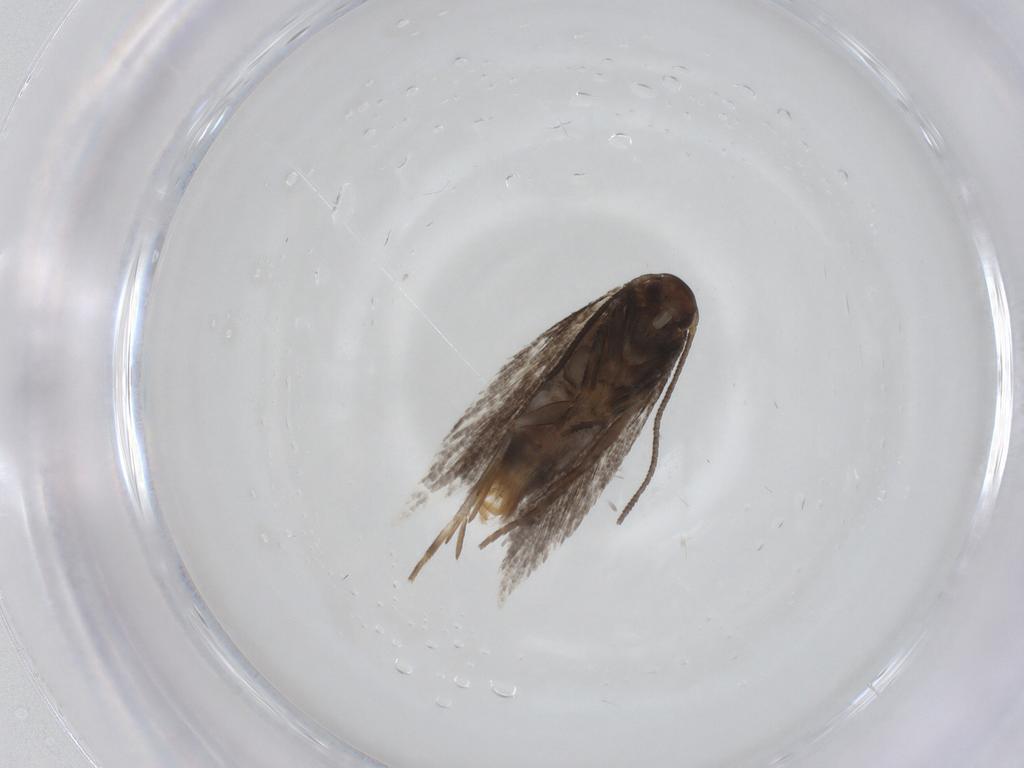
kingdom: Animalia
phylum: Arthropoda
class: Insecta
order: Lepidoptera
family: Elachistidae
